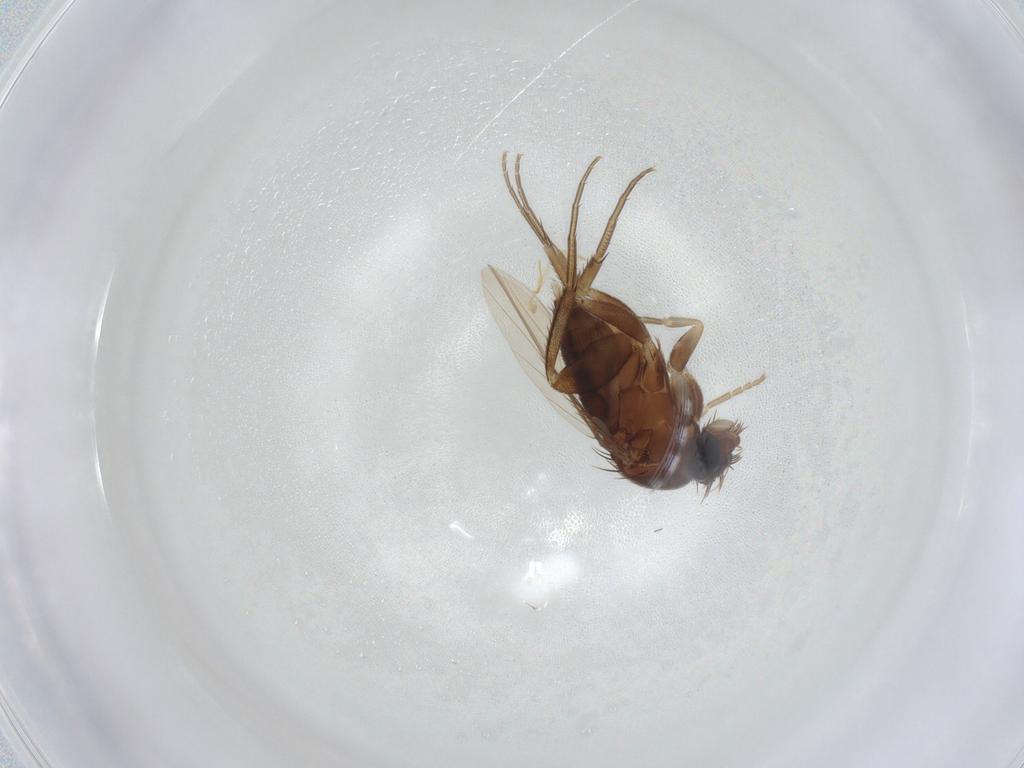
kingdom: Animalia
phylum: Arthropoda
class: Insecta
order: Diptera
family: Phoridae
